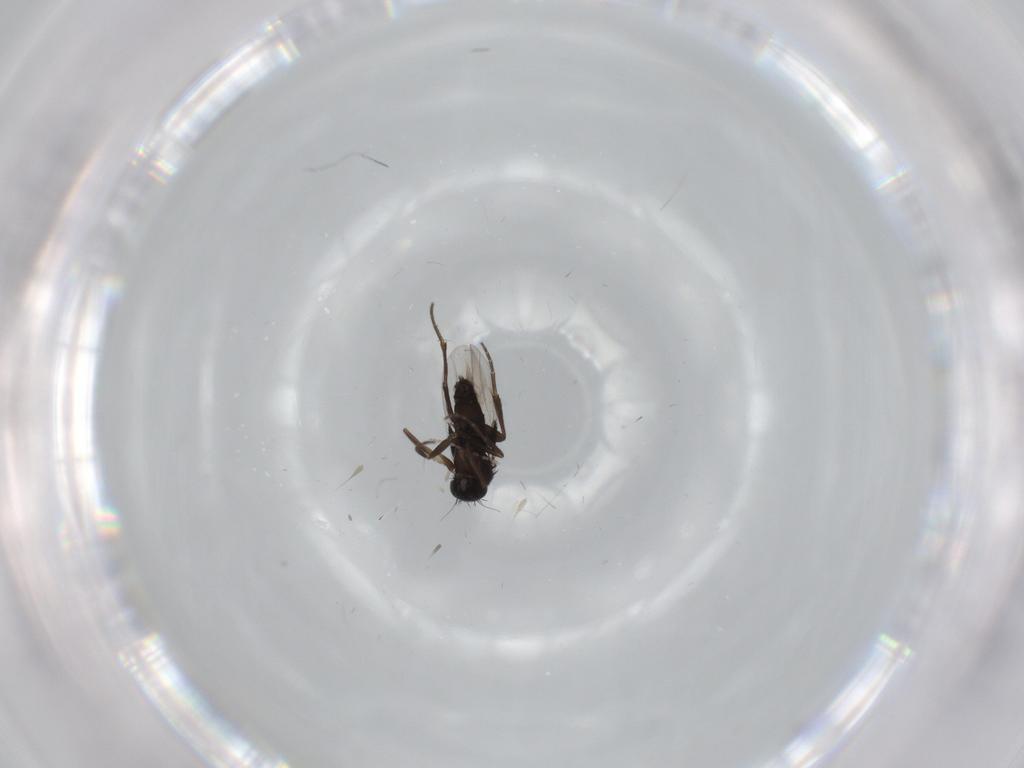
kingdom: Animalia
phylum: Arthropoda
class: Insecta
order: Diptera
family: Phoridae
